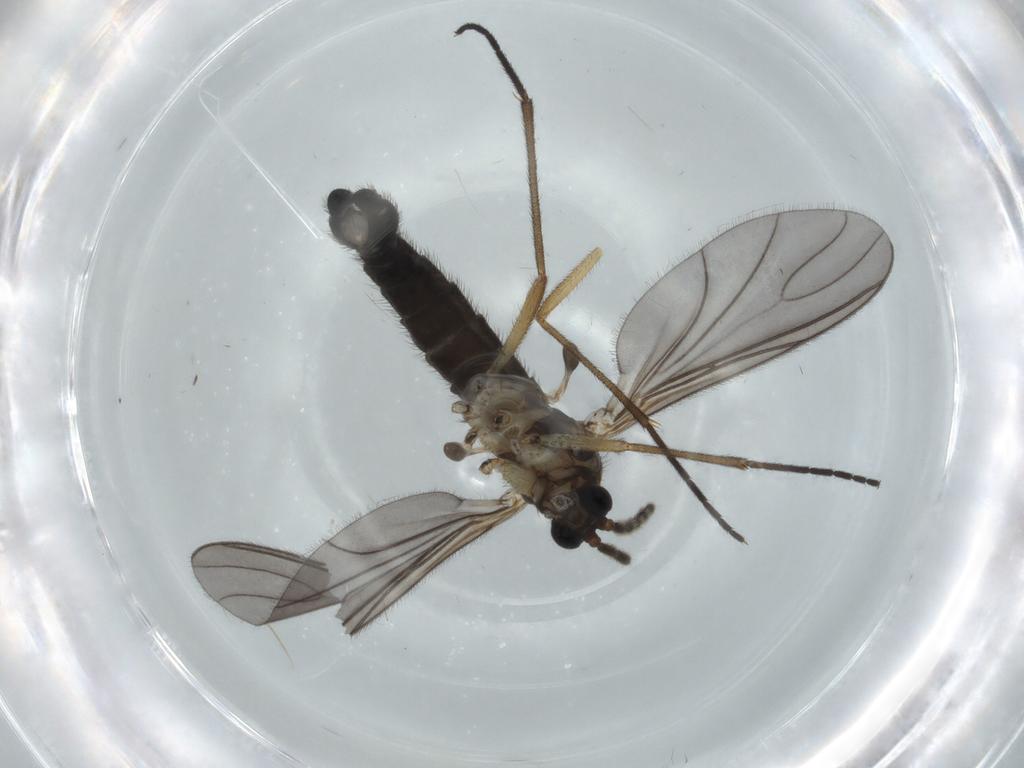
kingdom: Animalia
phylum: Arthropoda
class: Insecta
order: Diptera
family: Sciaridae
